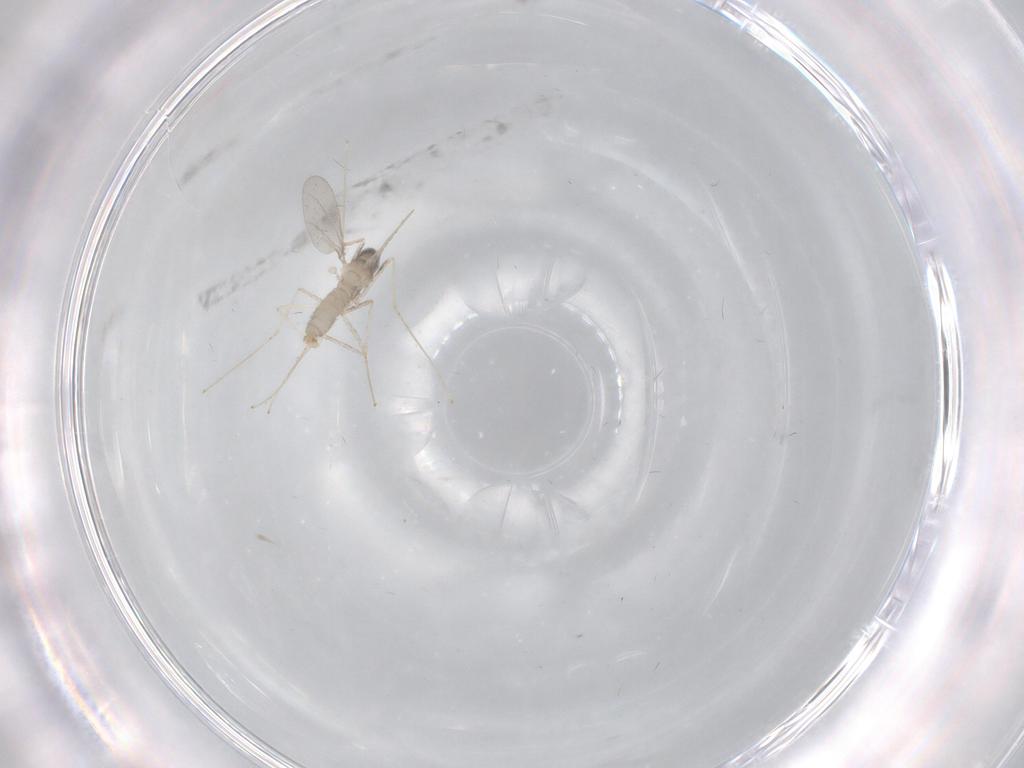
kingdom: Animalia
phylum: Arthropoda
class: Insecta
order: Diptera
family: Cecidomyiidae
